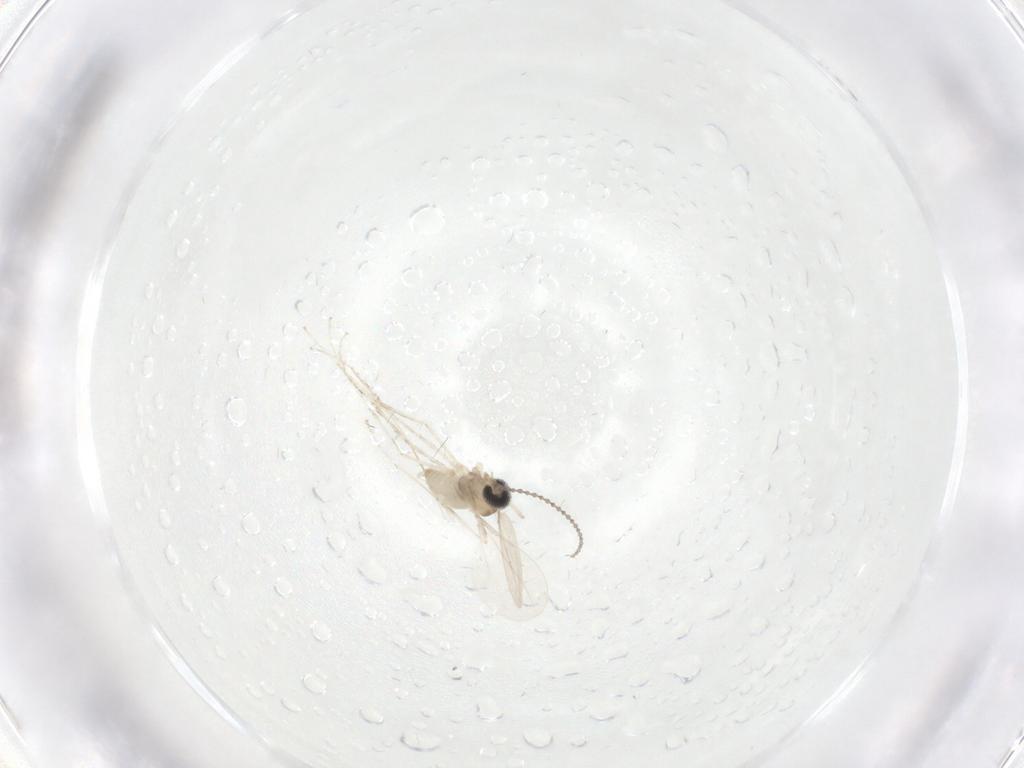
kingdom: Animalia
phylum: Arthropoda
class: Insecta
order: Diptera
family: Cecidomyiidae
